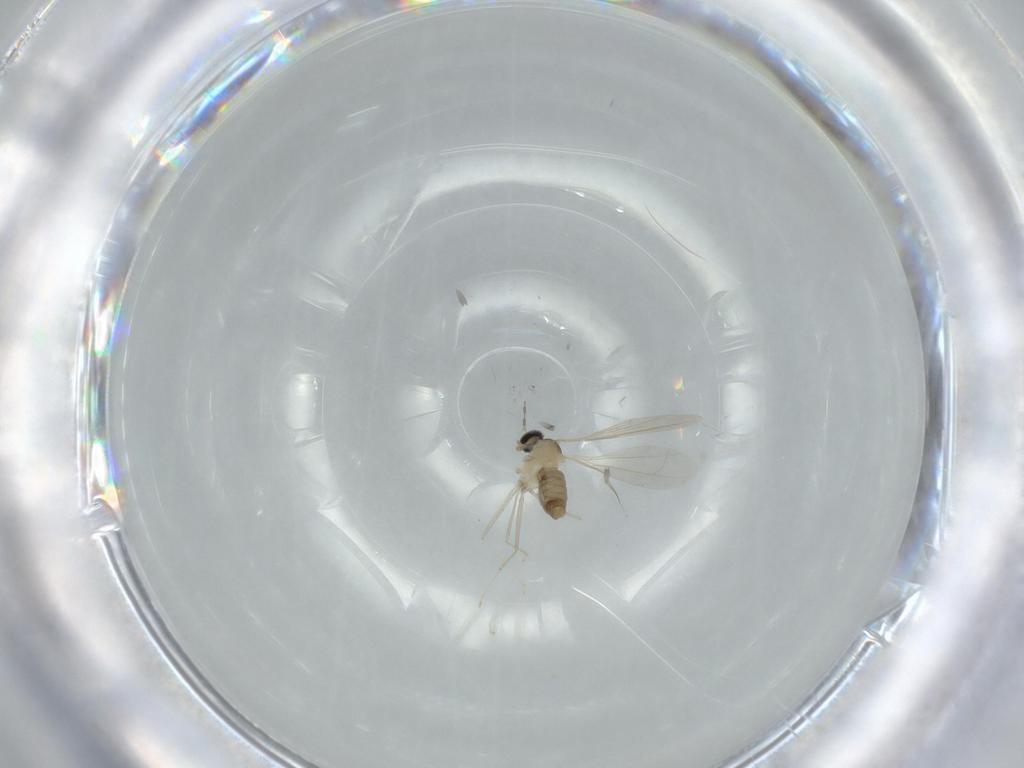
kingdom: Animalia
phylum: Arthropoda
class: Insecta
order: Diptera
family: Cecidomyiidae
